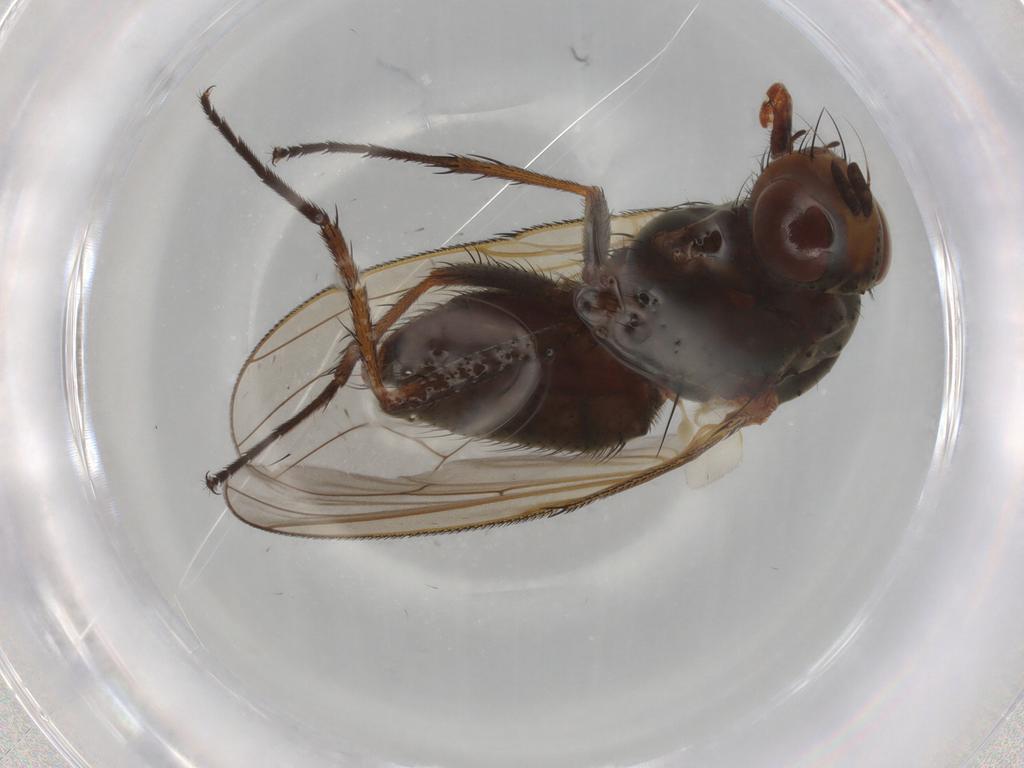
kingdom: Animalia
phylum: Arthropoda
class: Insecta
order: Diptera
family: Anthomyiidae
